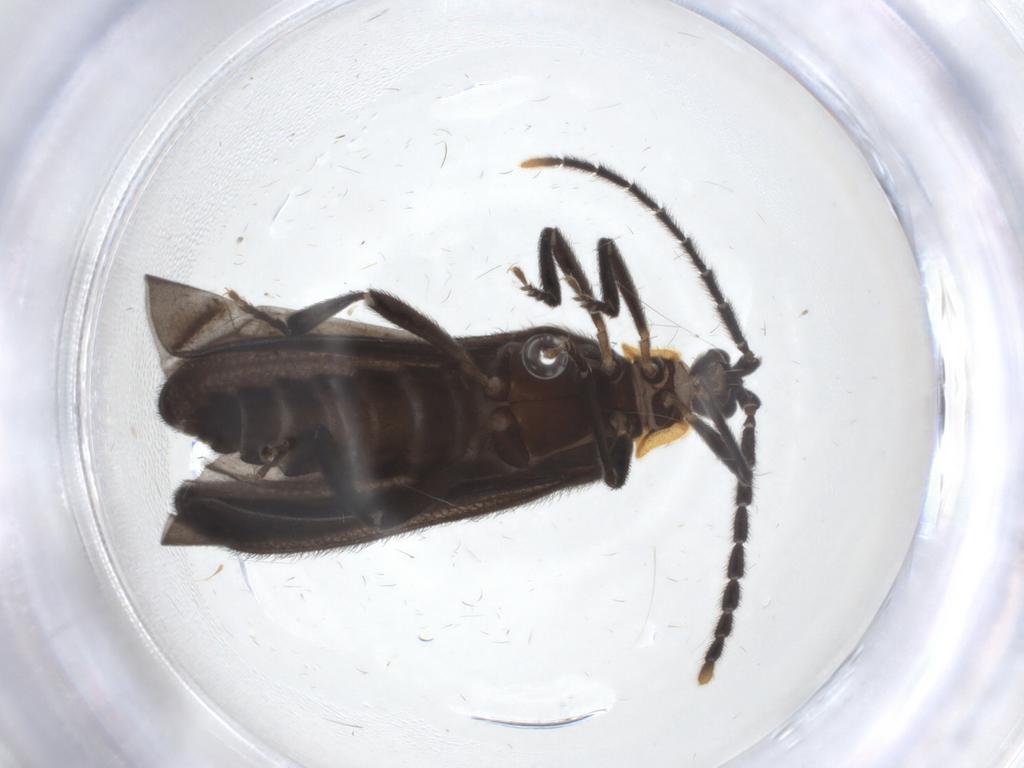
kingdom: Animalia
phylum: Arthropoda
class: Insecta
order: Coleoptera
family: Lycidae
